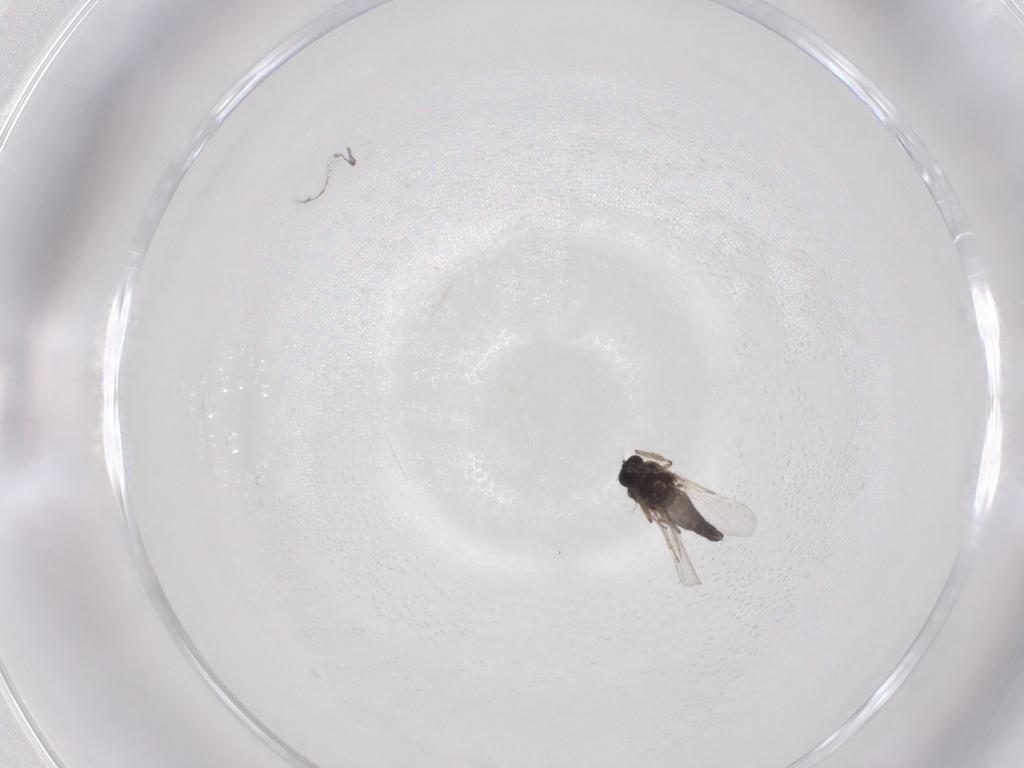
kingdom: Animalia
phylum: Arthropoda
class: Insecta
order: Diptera
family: Ceratopogonidae
